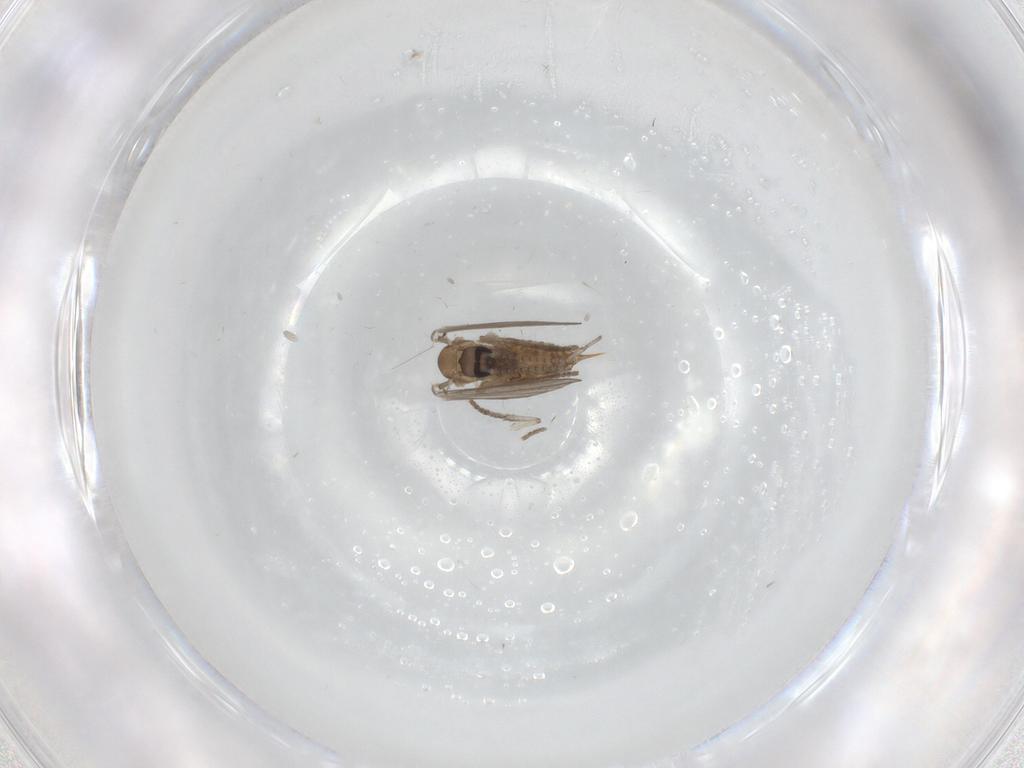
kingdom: Animalia
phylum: Arthropoda
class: Insecta
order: Diptera
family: Psychodidae
